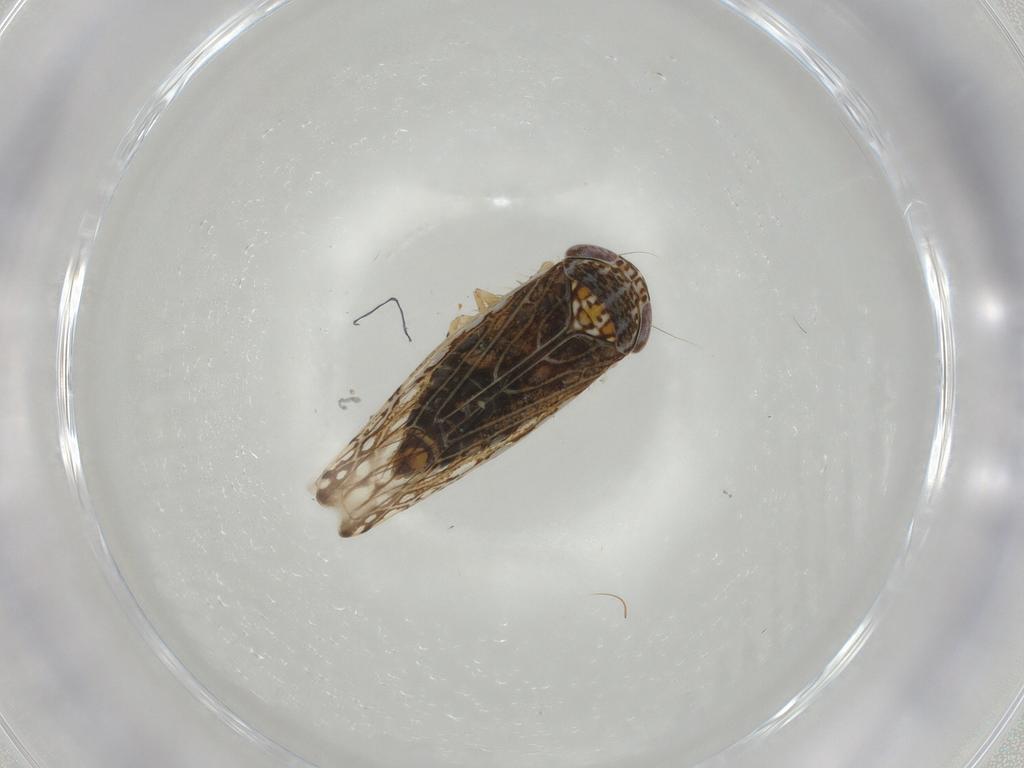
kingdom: Animalia
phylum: Arthropoda
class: Insecta
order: Hemiptera
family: Cicadellidae
